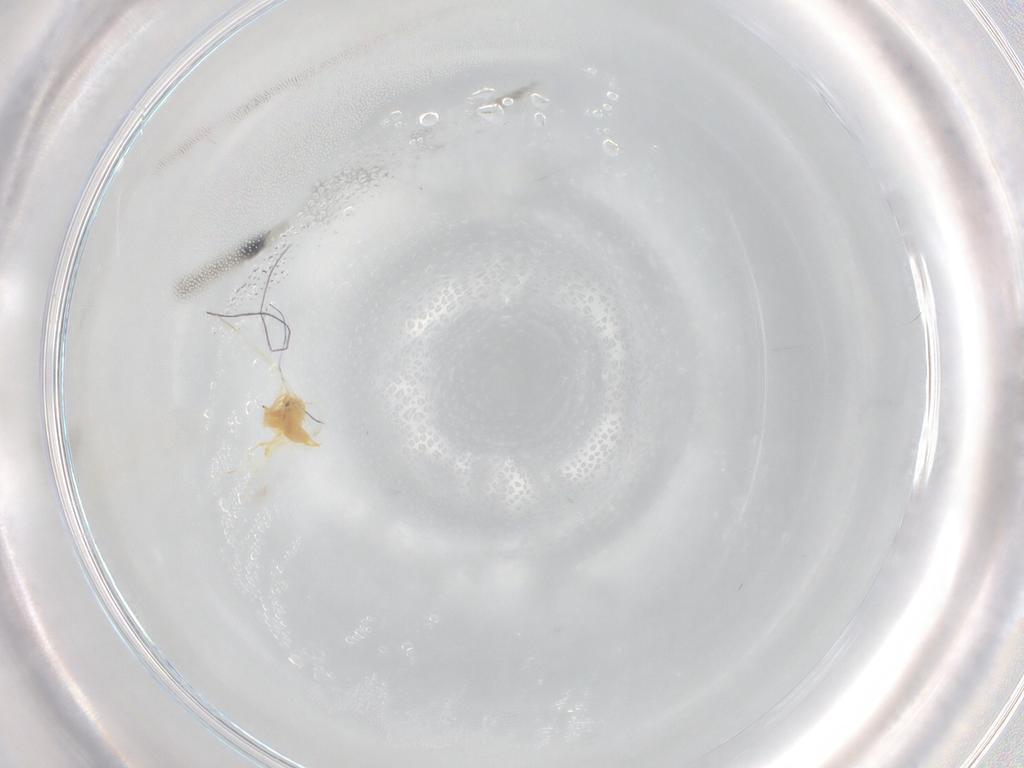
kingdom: Animalia
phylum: Arthropoda
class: Insecta
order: Hemiptera
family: Aleyrodidae
